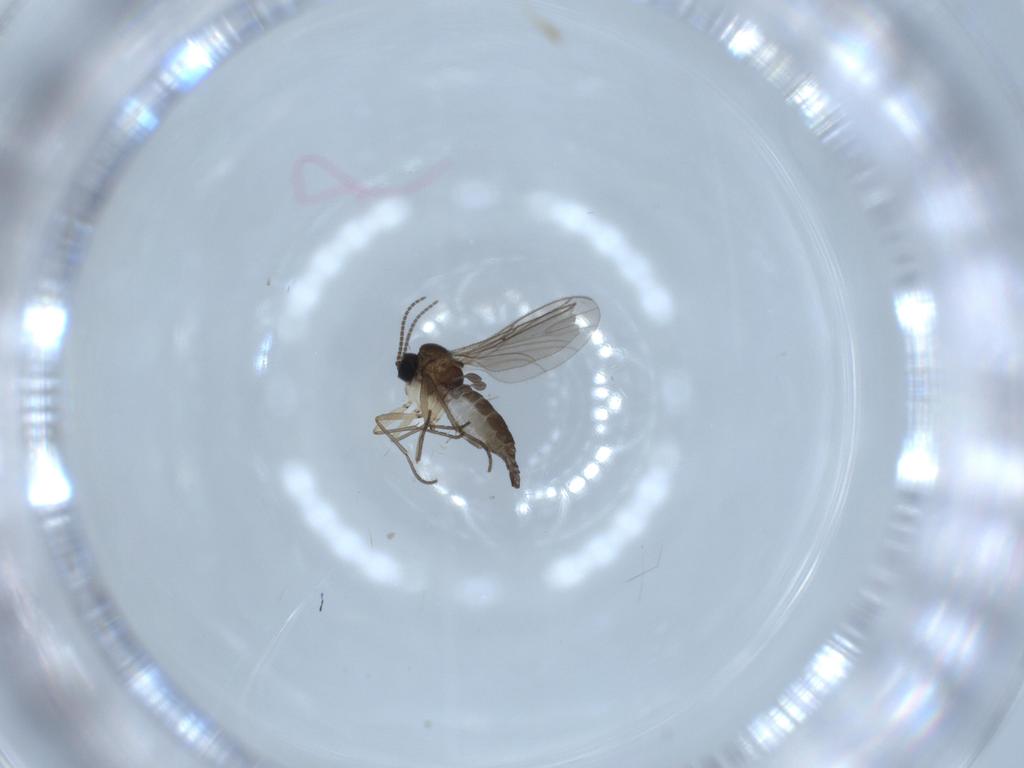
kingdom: Animalia
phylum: Arthropoda
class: Insecta
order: Diptera
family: Sciaridae
